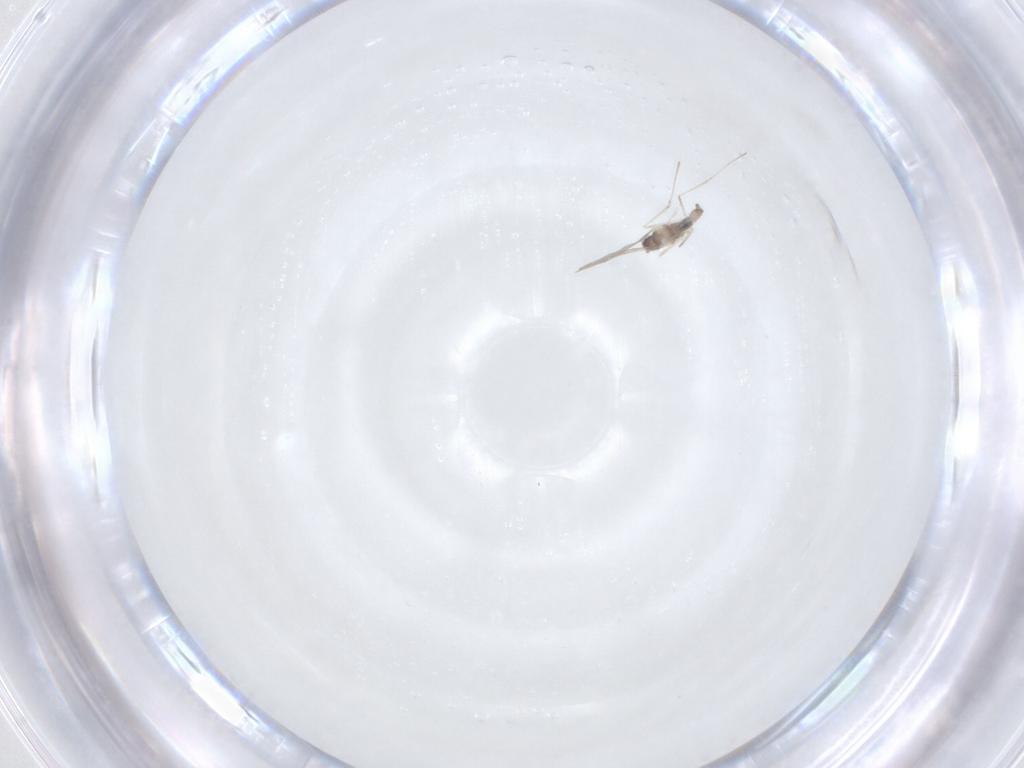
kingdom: Animalia
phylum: Arthropoda
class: Insecta
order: Diptera
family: Cecidomyiidae
